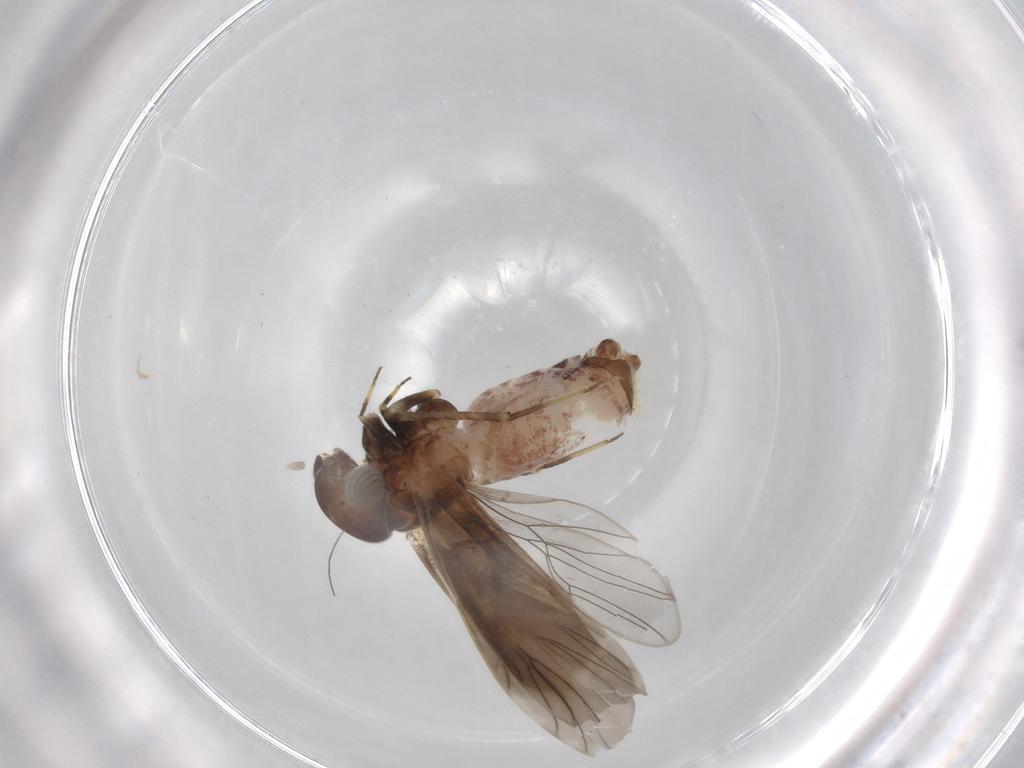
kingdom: Animalia
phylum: Arthropoda
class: Insecta
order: Psocodea
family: Amphientomidae
